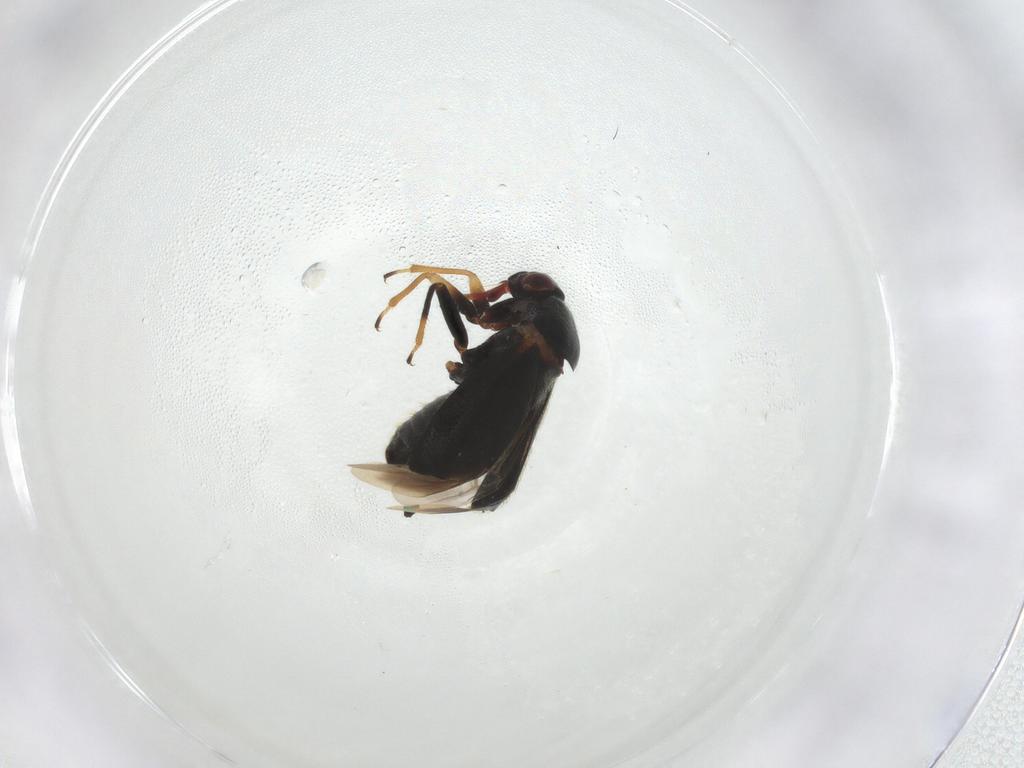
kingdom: Animalia
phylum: Arthropoda
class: Insecta
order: Hemiptera
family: Miridae
